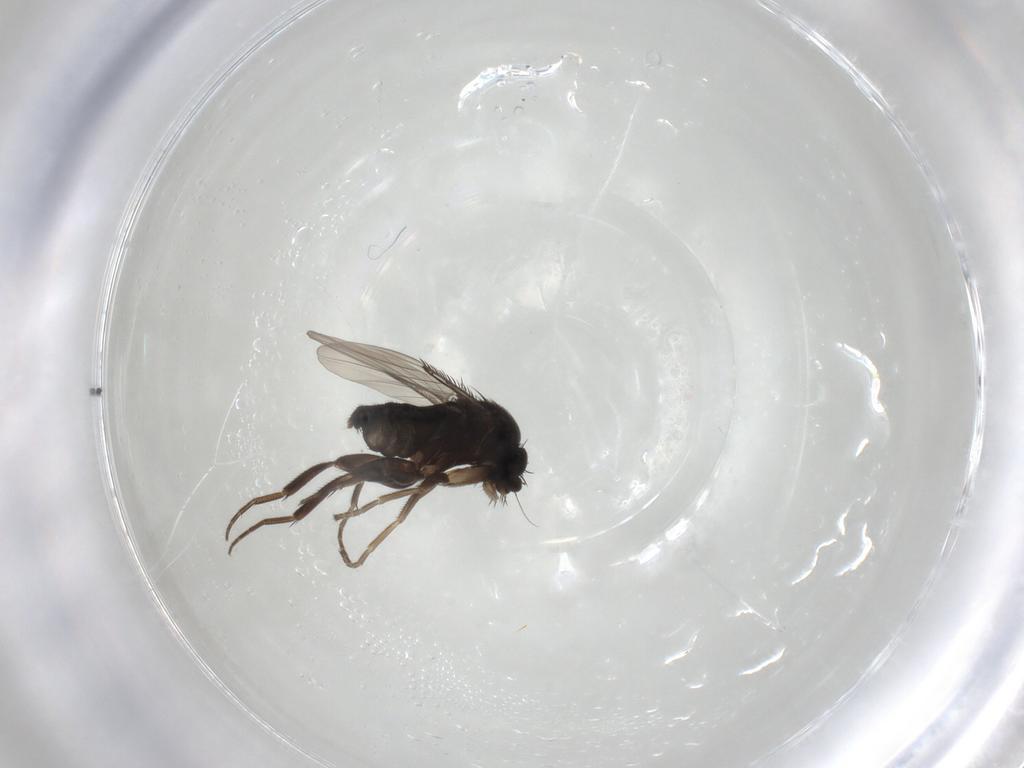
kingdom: Animalia
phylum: Arthropoda
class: Insecta
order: Diptera
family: Phoridae
